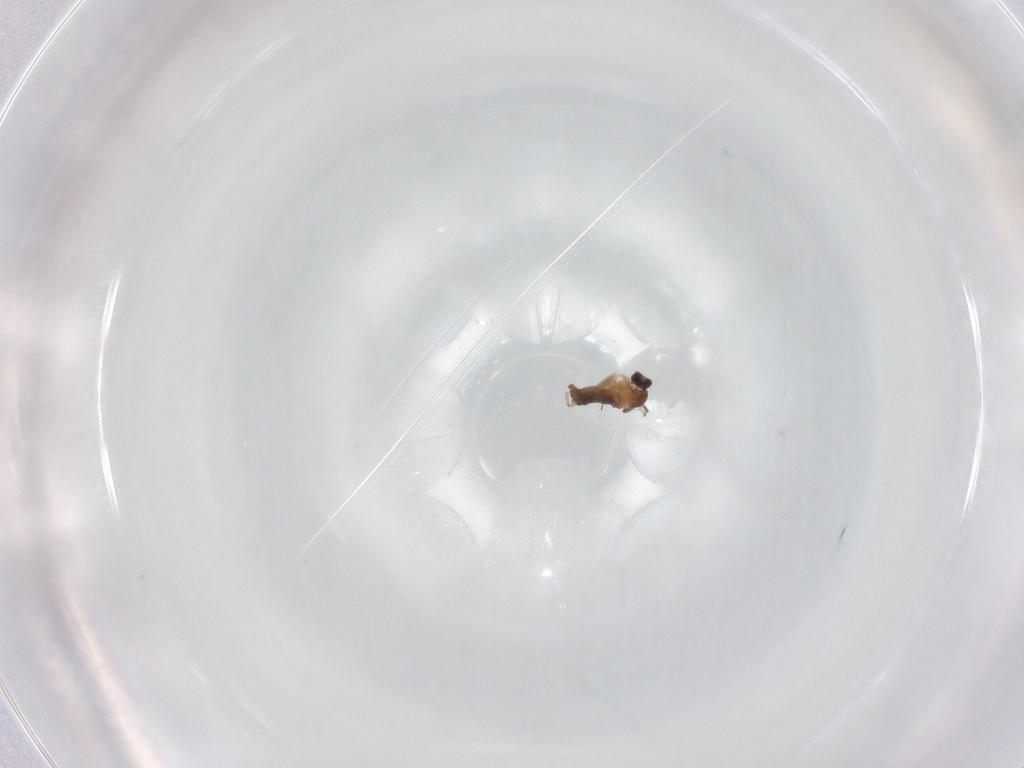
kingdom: Animalia
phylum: Arthropoda
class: Insecta
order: Diptera
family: Cecidomyiidae
